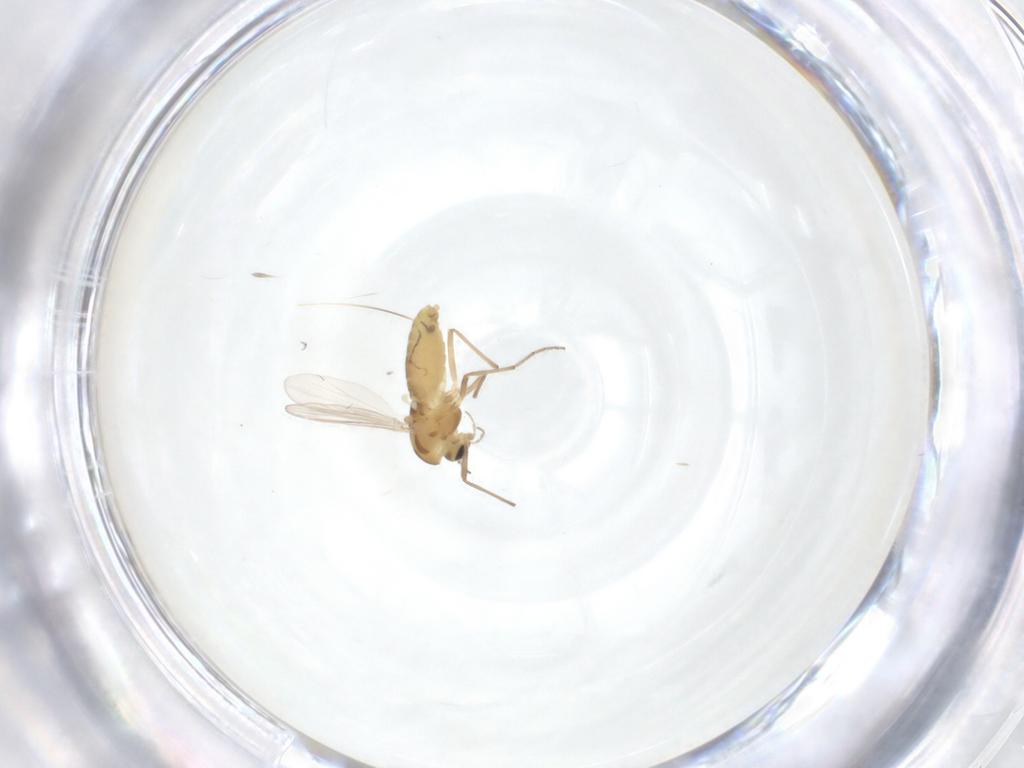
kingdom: Animalia
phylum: Arthropoda
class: Insecta
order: Diptera
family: Chironomidae
